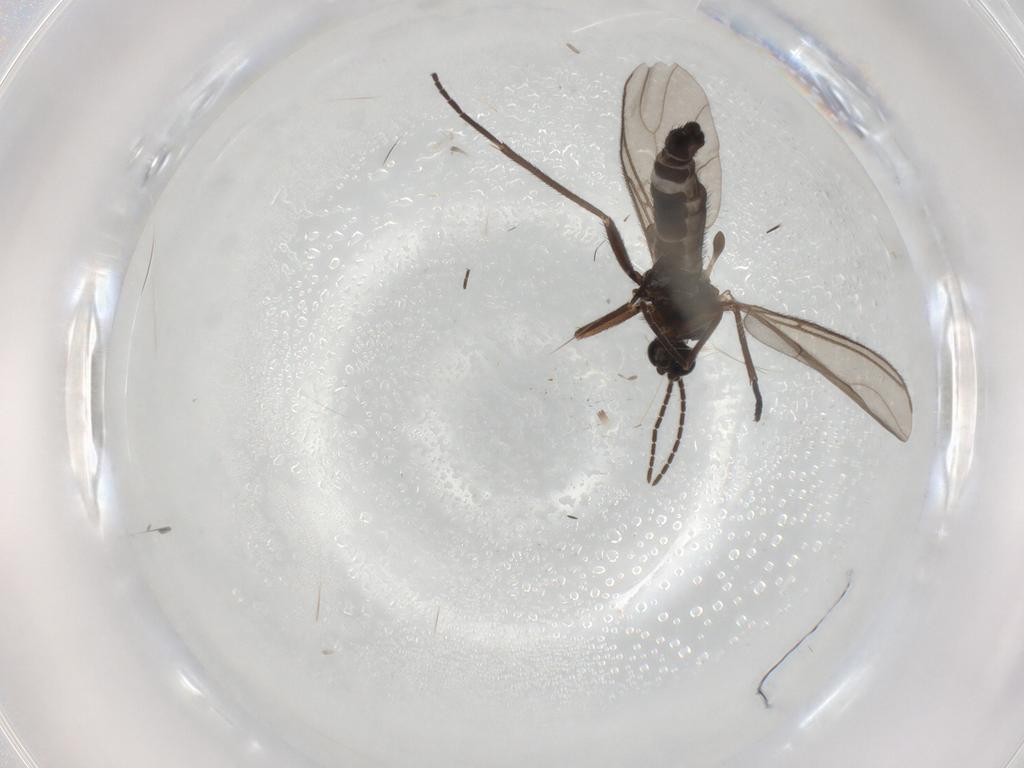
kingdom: Animalia
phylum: Arthropoda
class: Insecta
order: Diptera
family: Phoridae
